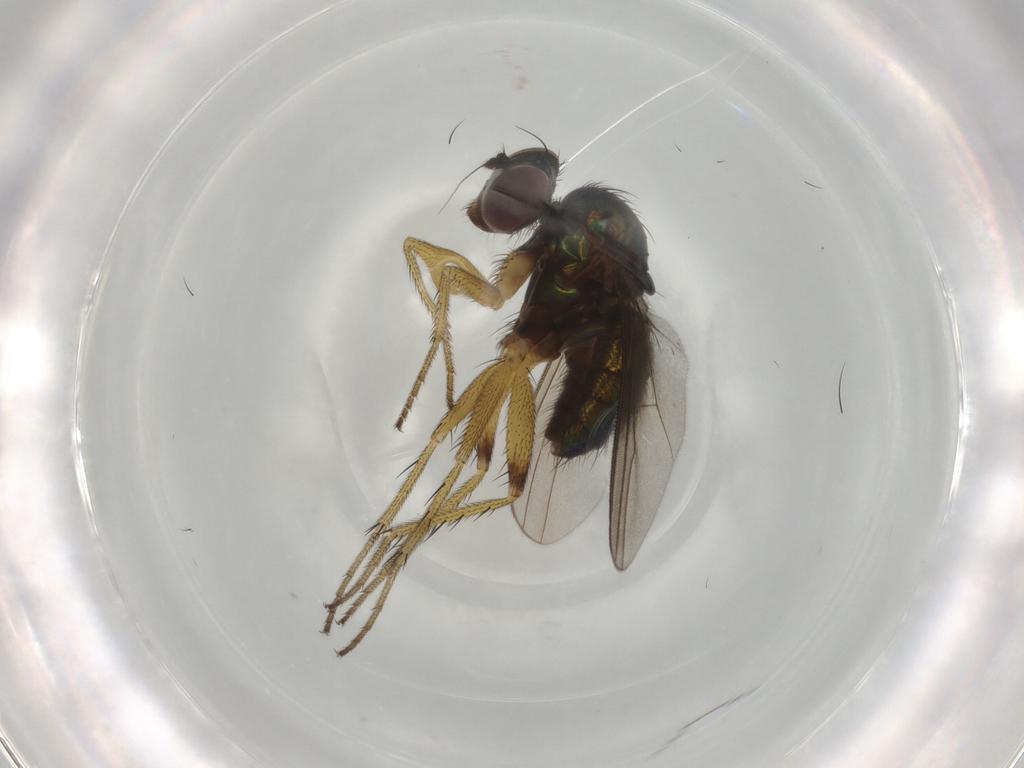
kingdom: Animalia
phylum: Arthropoda
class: Insecta
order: Diptera
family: Dolichopodidae
